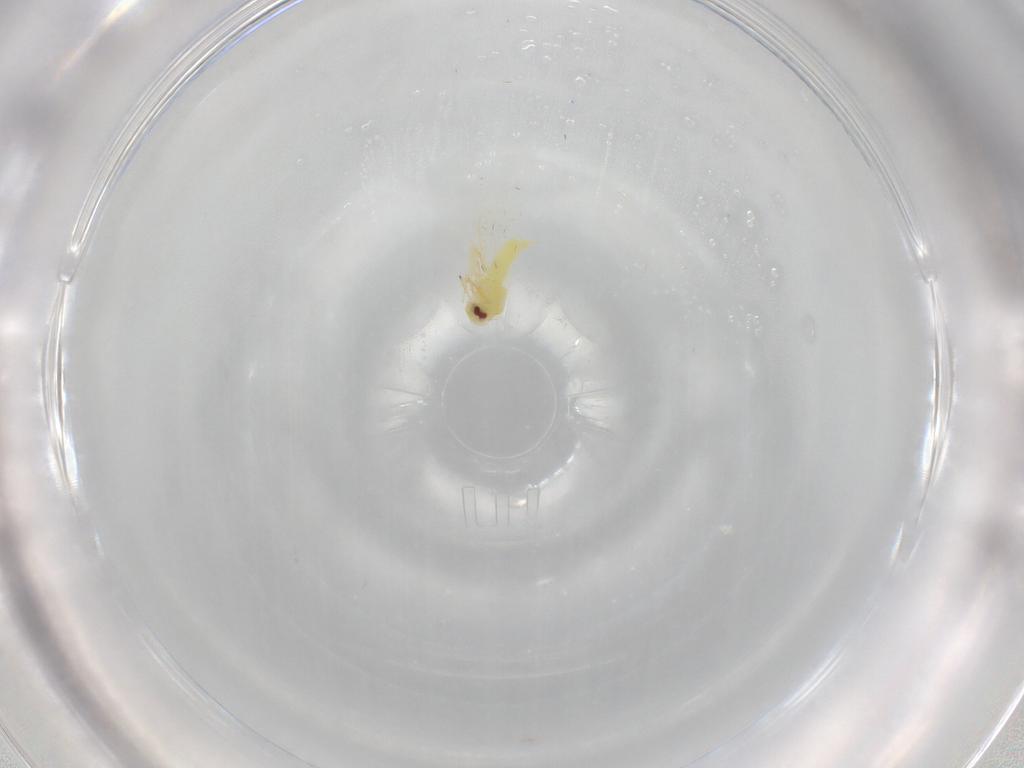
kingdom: Animalia
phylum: Arthropoda
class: Insecta
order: Hemiptera
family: Aleyrodidae
